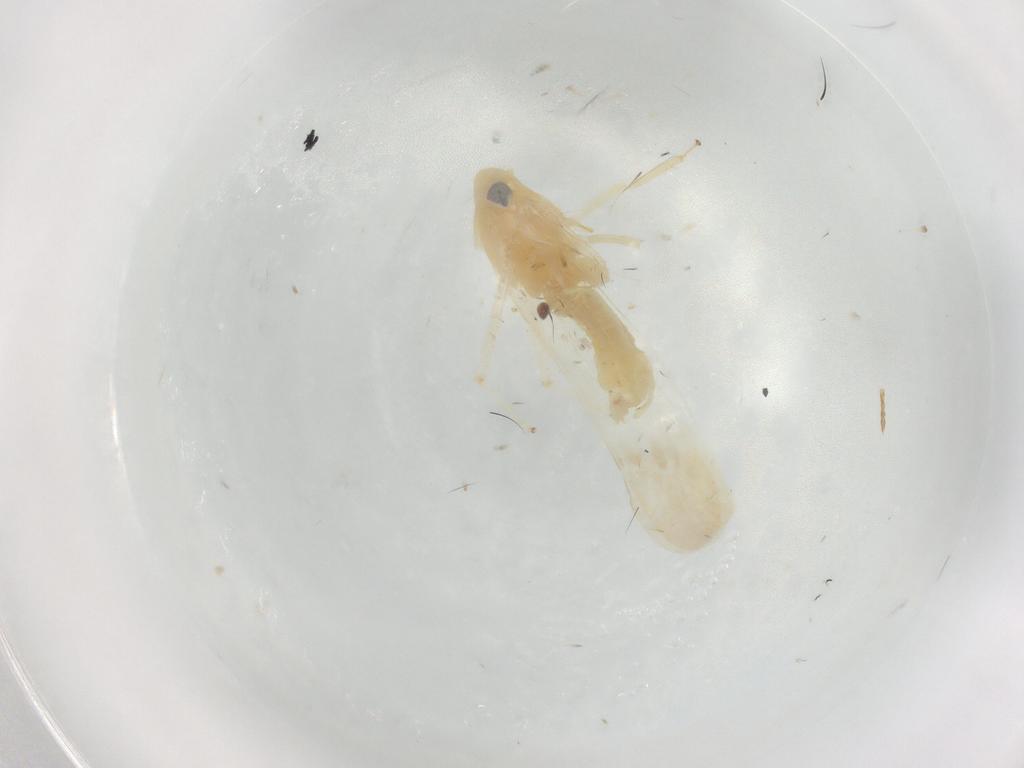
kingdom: Animalia
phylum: Arthropoda
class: Insecta
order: Hemiptera
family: Cicadellidae
